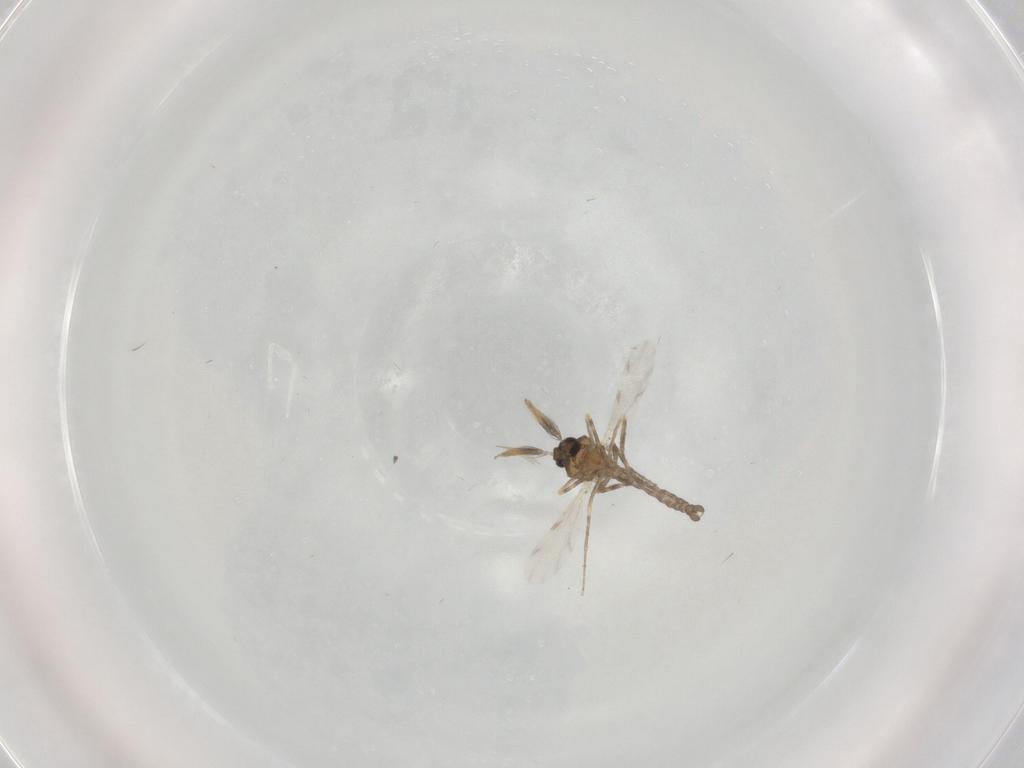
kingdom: Animalia
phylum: Arthropoda
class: Insecta
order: Diptera
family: Ceratopogonidae
